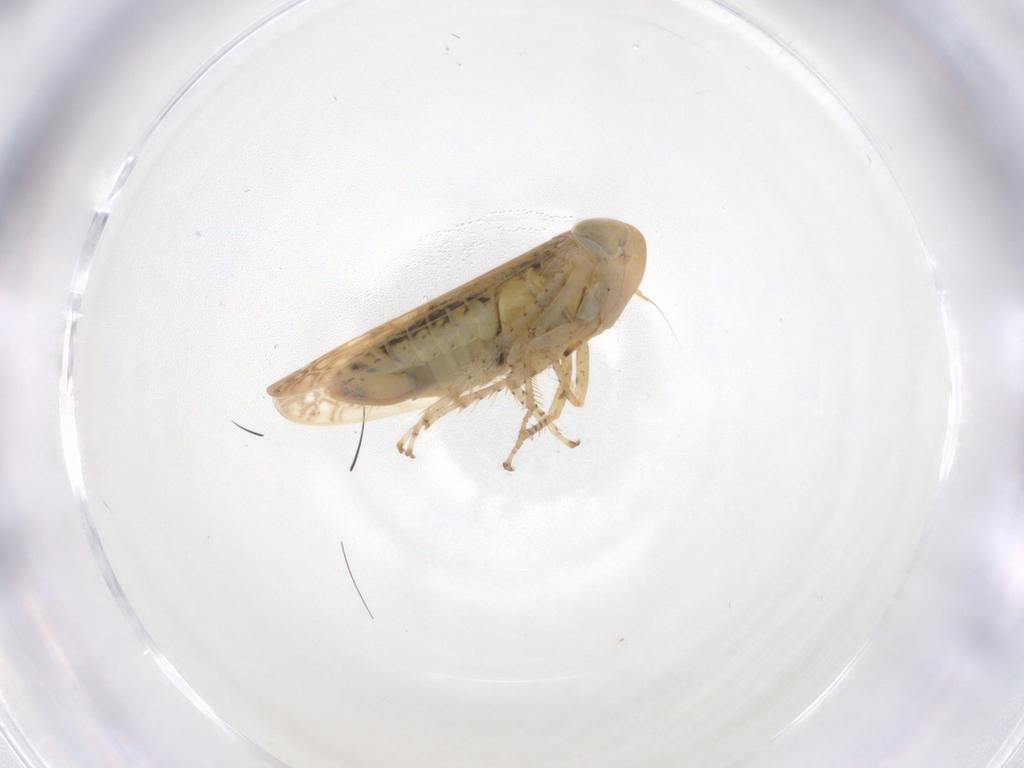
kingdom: Animalia
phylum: Arthropoda
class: Insecta
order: Hemiptera
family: Cicadellidae
